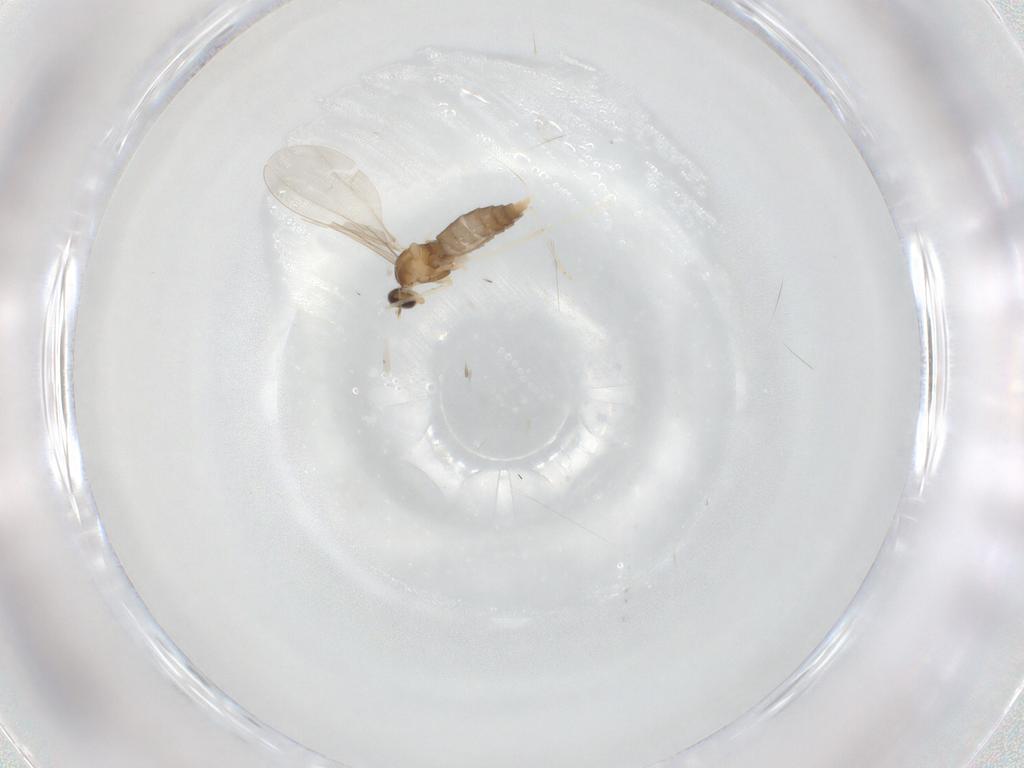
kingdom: Animalia
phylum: Arthropoda
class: Insecta
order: Diptera
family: Cecidomyiidae
